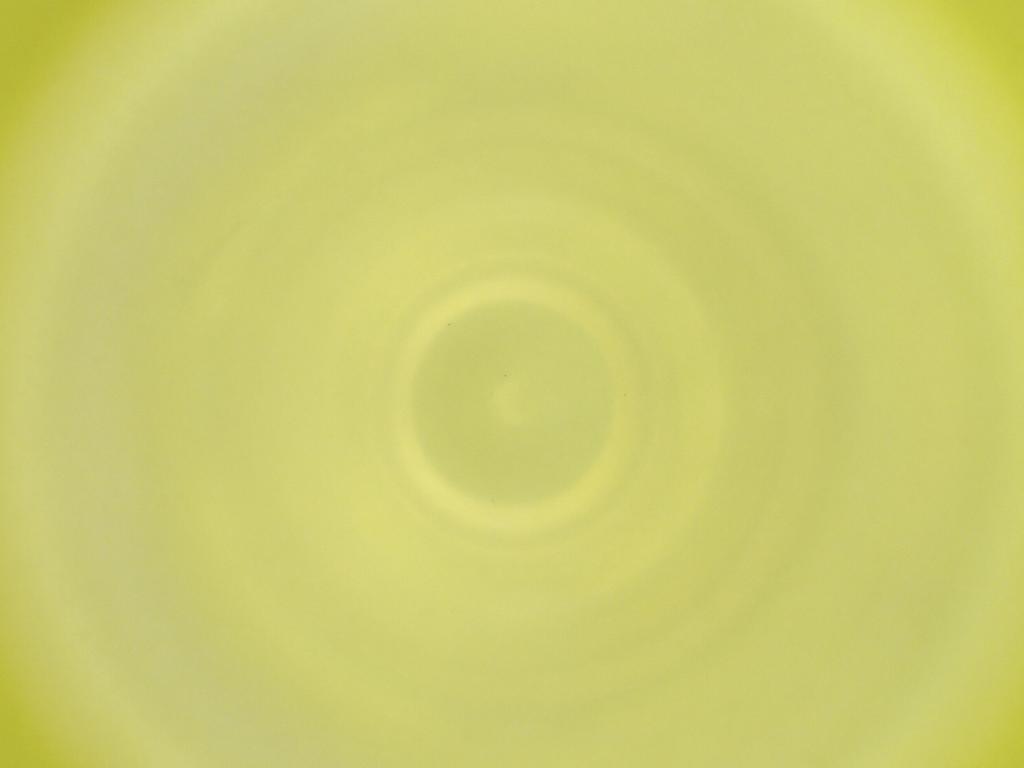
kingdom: Animalia
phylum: Arthropoda
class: Insecta
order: Diptera
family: Cecidomyiidae
